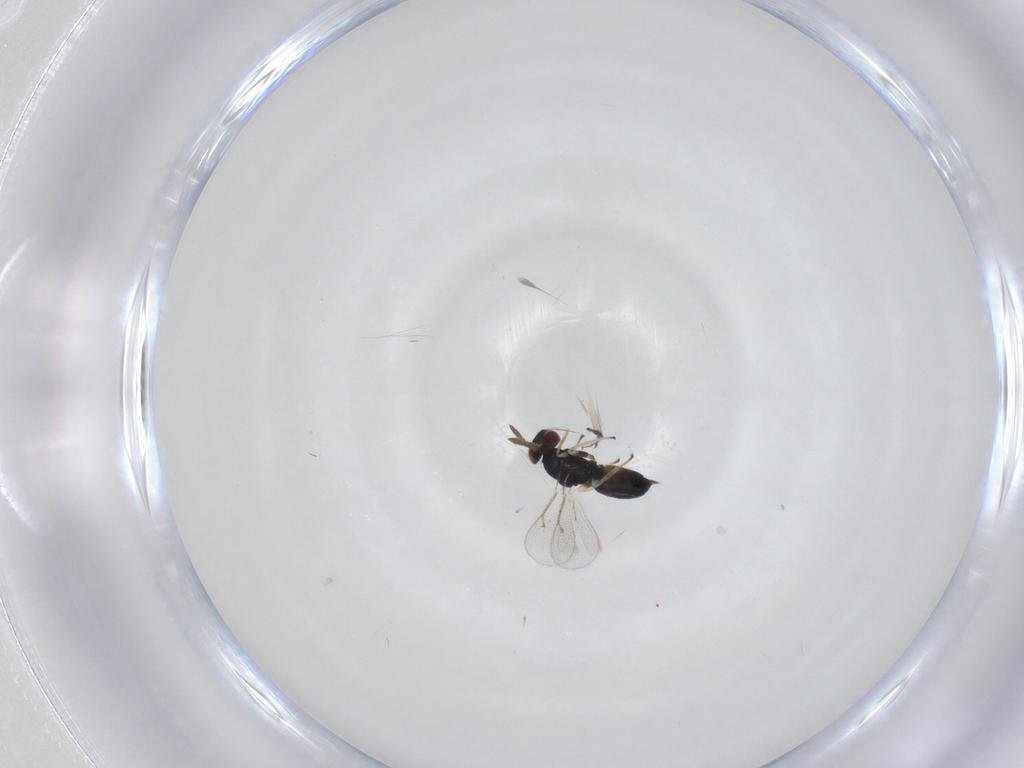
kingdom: Animalia
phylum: Arthropoda
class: Insecta
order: Hymenoptera
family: Eulophidae
